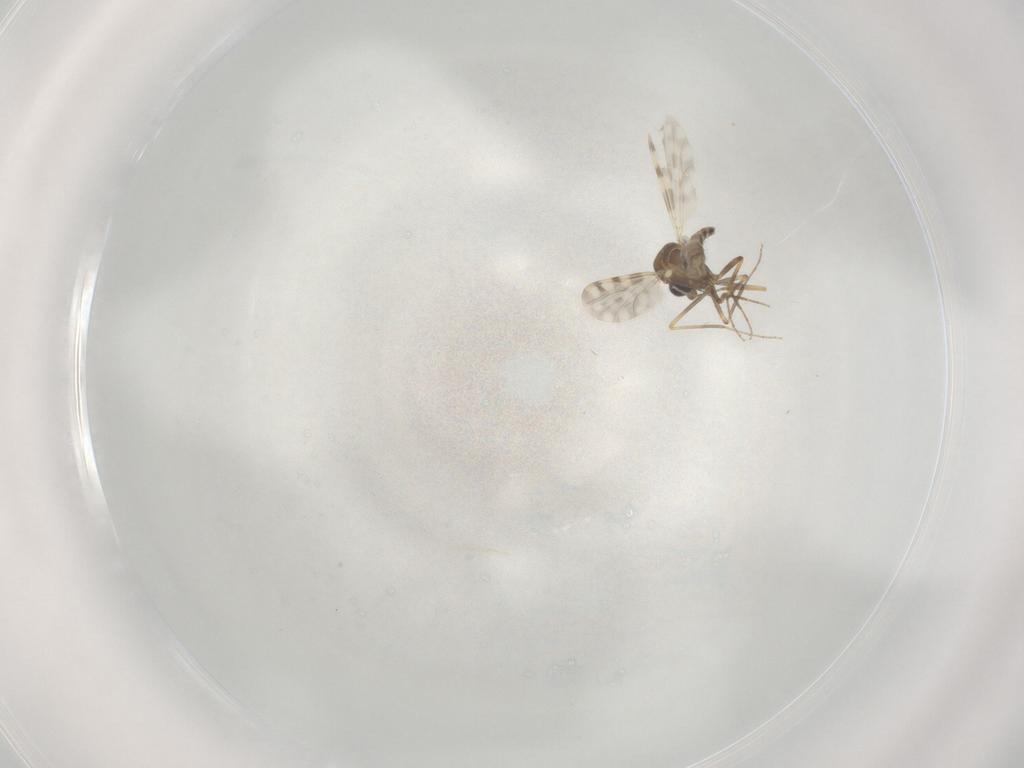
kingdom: Animalia
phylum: Arthropoda
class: Insecta
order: Diptera
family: Ceratopogonidae
